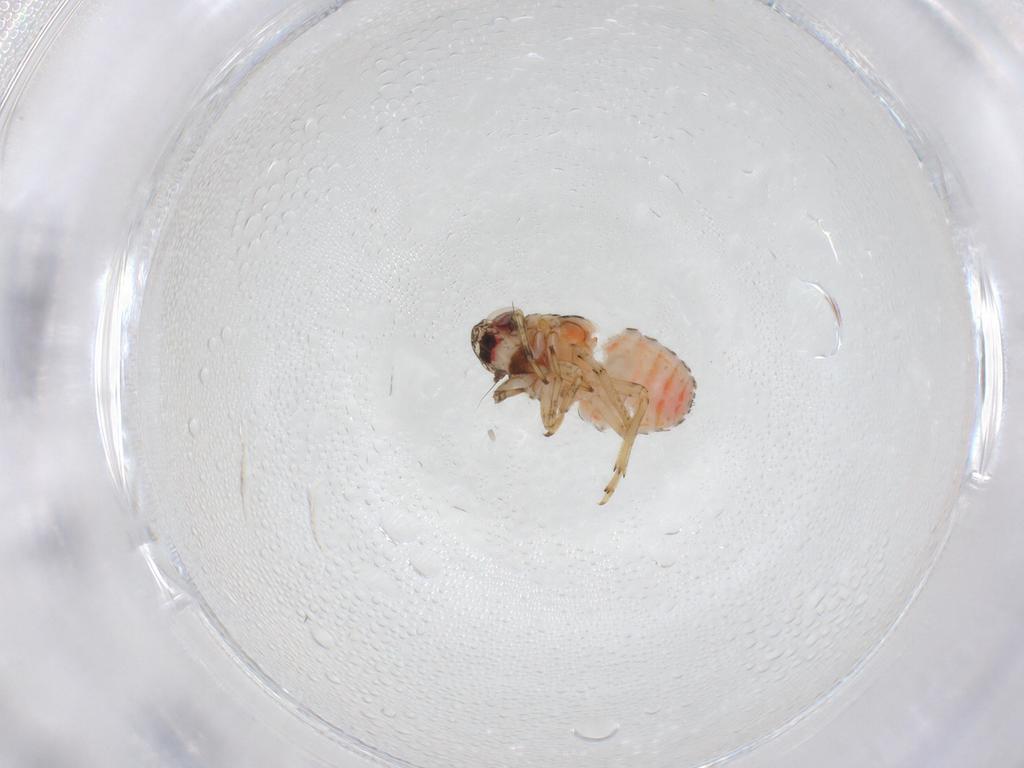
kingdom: Animalia
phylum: Arthropoda
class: Insecta
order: Hemiptera
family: Issidae
